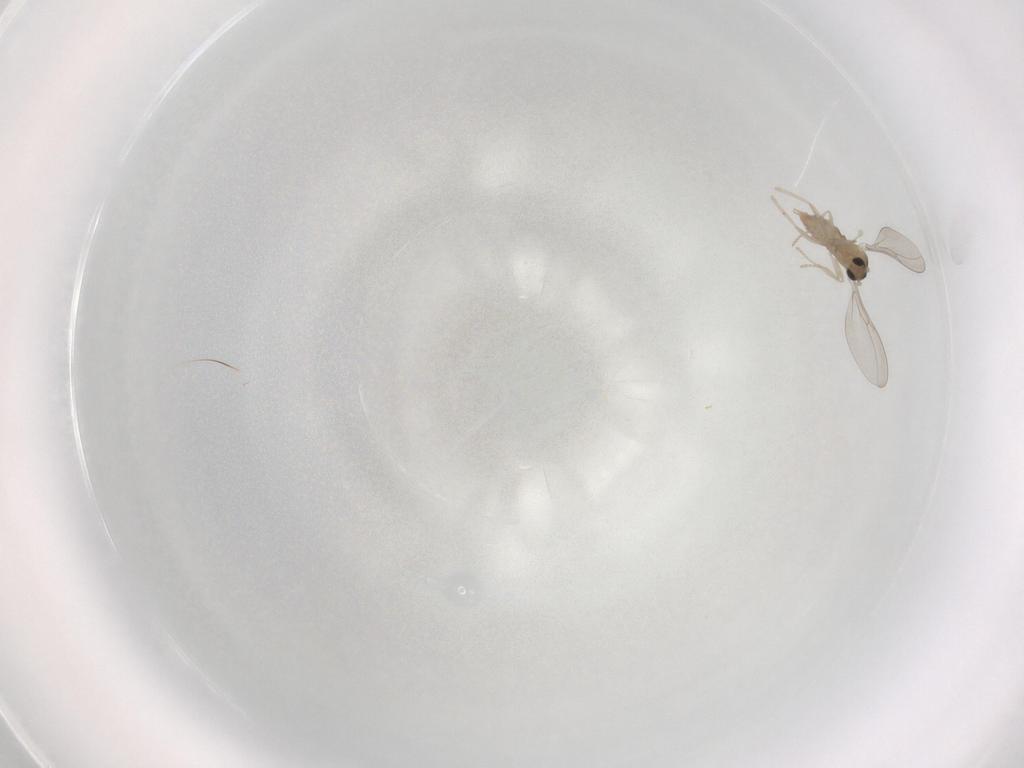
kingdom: Animalia
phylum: Arthropoda
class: Insecta
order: Diptera
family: Cecidomyiidae
